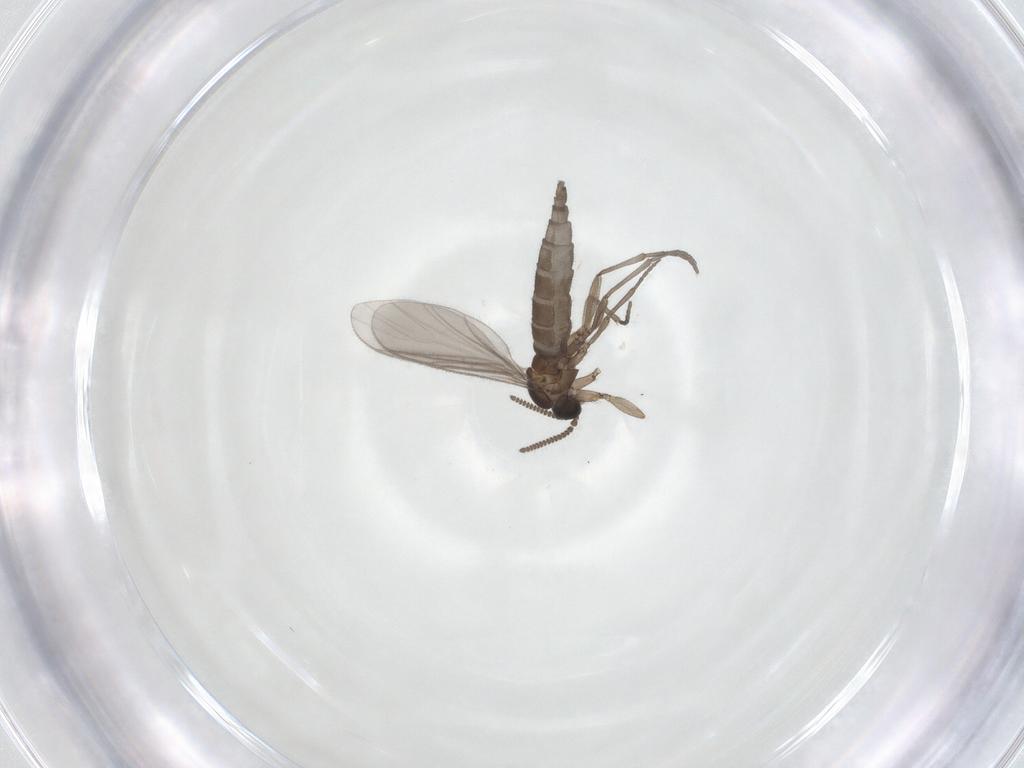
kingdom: Animalia
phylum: Arthropoda
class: Insecta
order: Diptera
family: Sciaridae
